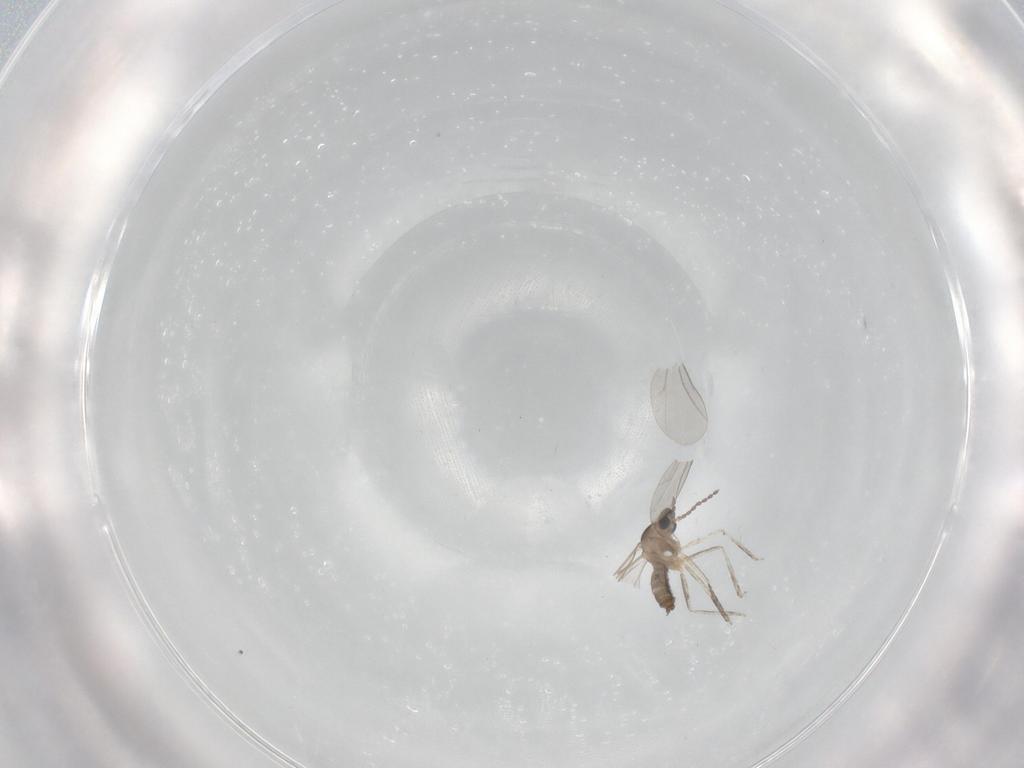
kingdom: Animalia
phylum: Arthropoda
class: Insecta
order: Diptera
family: Cecidomyiidae
